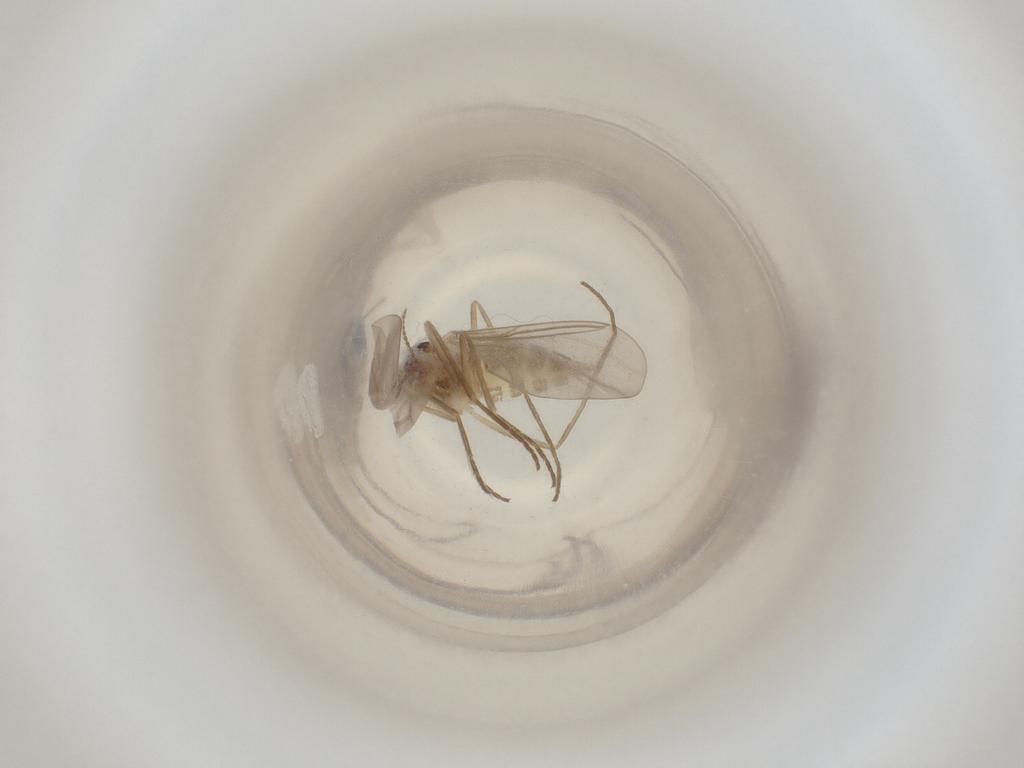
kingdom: Animalia
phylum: Arthropoda
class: Insecta
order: Diptera
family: Cecidomyiidae
